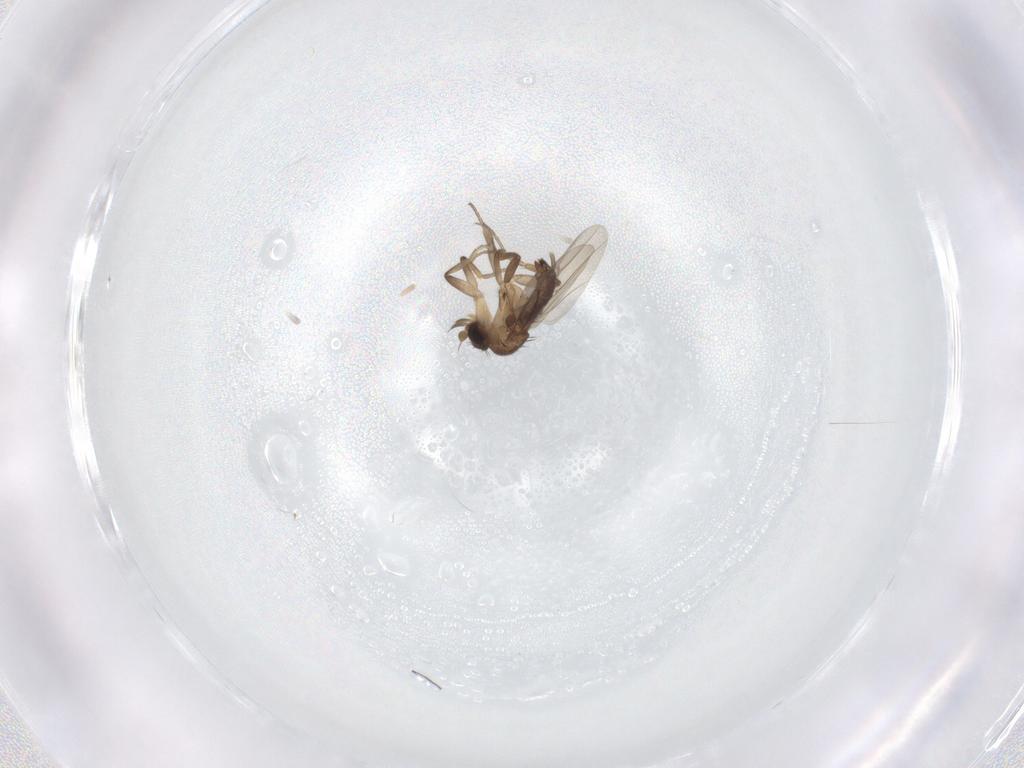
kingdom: Animalia
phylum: Arthropoda
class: Insecta
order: Diptera
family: Phoridae
